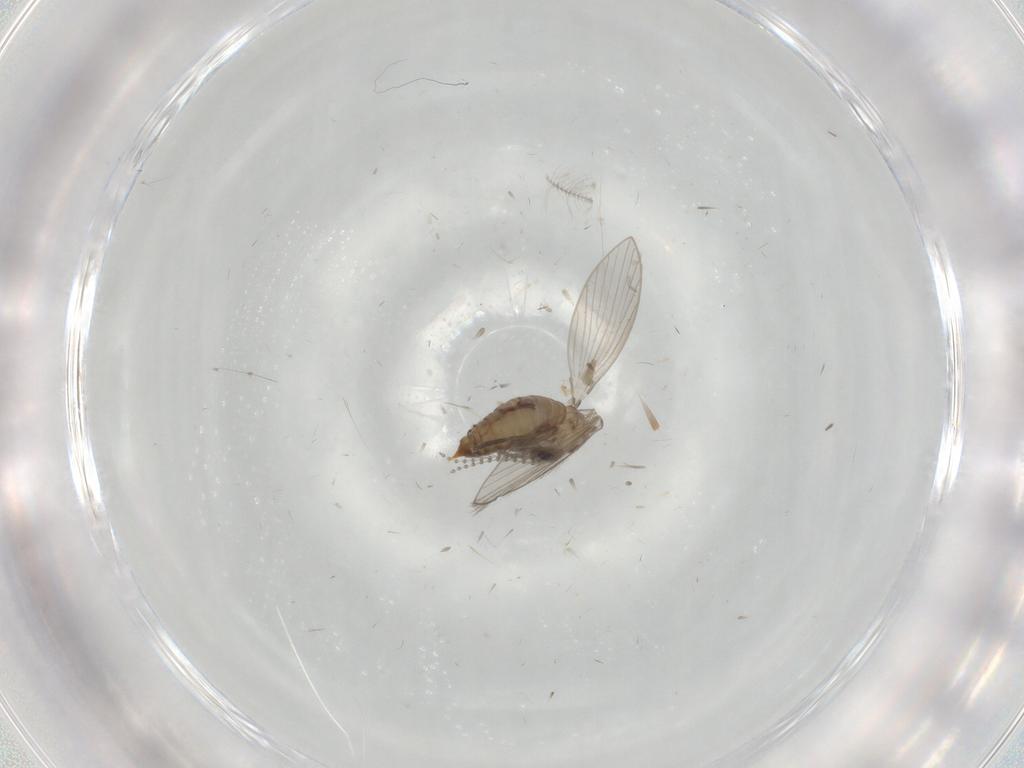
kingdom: Animalia
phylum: Arthropoda
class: Insecta
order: Diptera
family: Psychodidae
